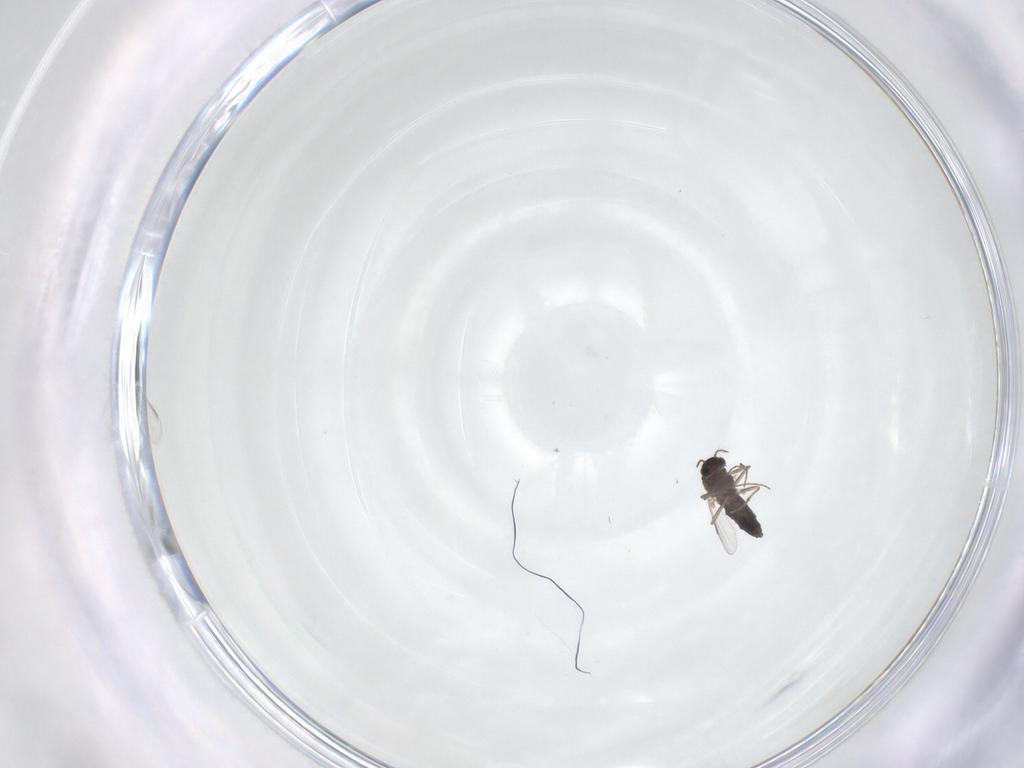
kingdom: Animalia
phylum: Arthropoda
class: Insecta
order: Diptera
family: Chironomidae
